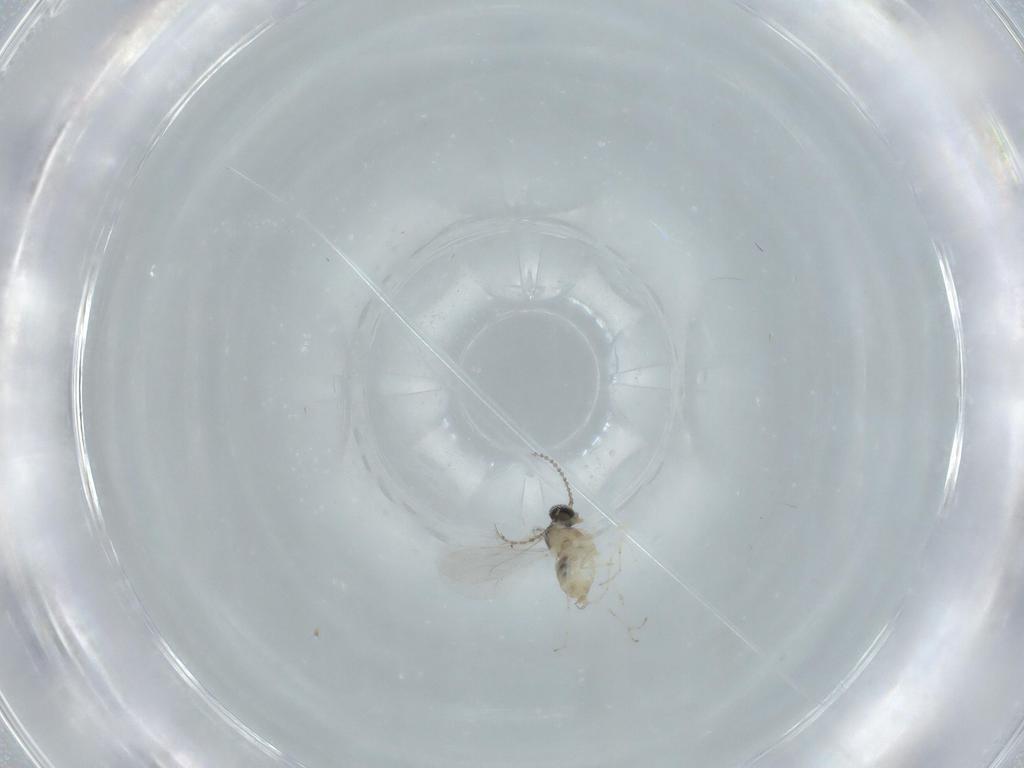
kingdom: Animalia
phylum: Arthropoda
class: Insecta
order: Diptera
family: Cecidomyiidae
